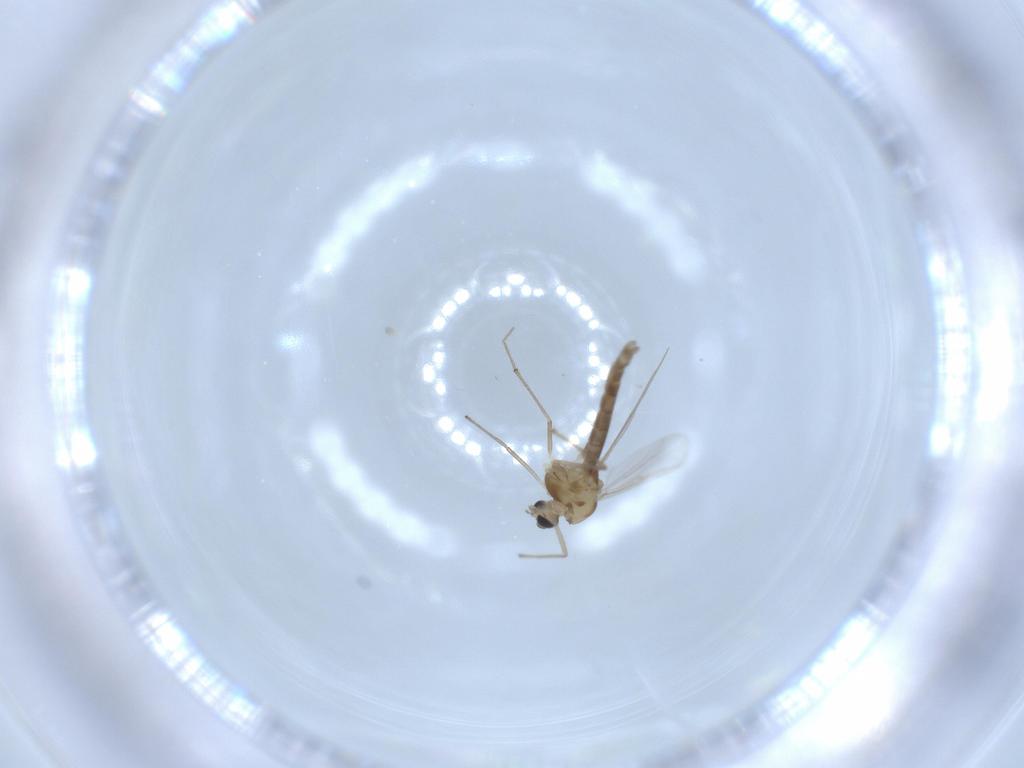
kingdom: Animalia
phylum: Arthropoda
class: Insecta
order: Diptera
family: Chironomidae
